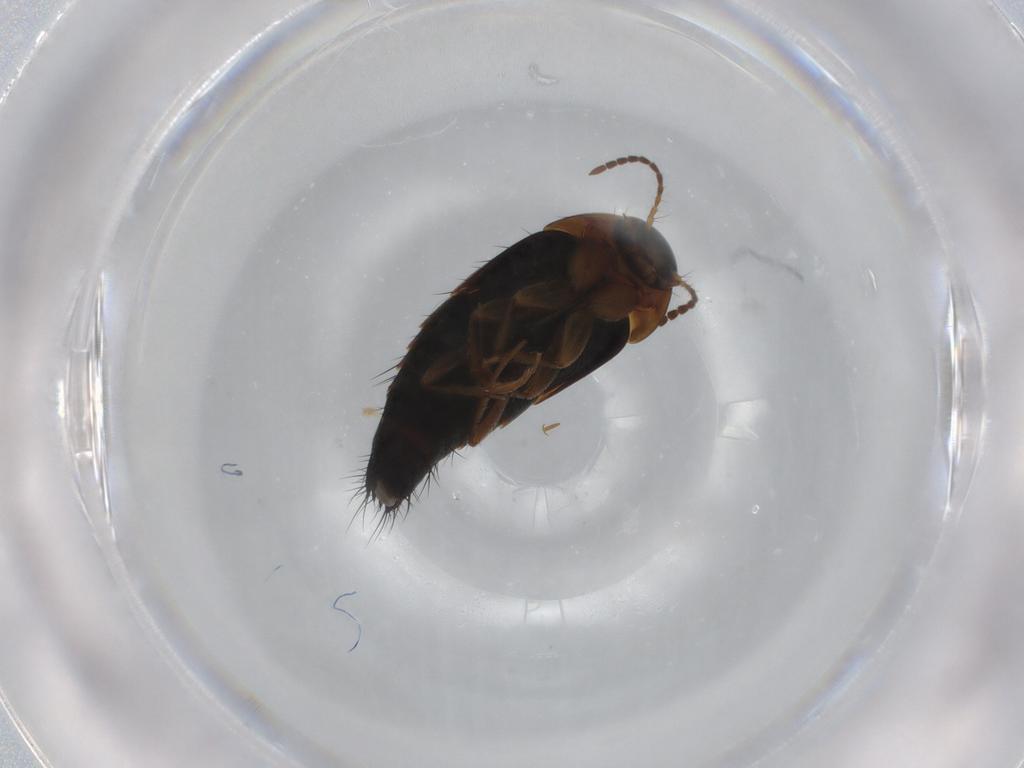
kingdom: Animalia
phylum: Arthropoda
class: Insecta
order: Coleoptera
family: Staphylinidae
